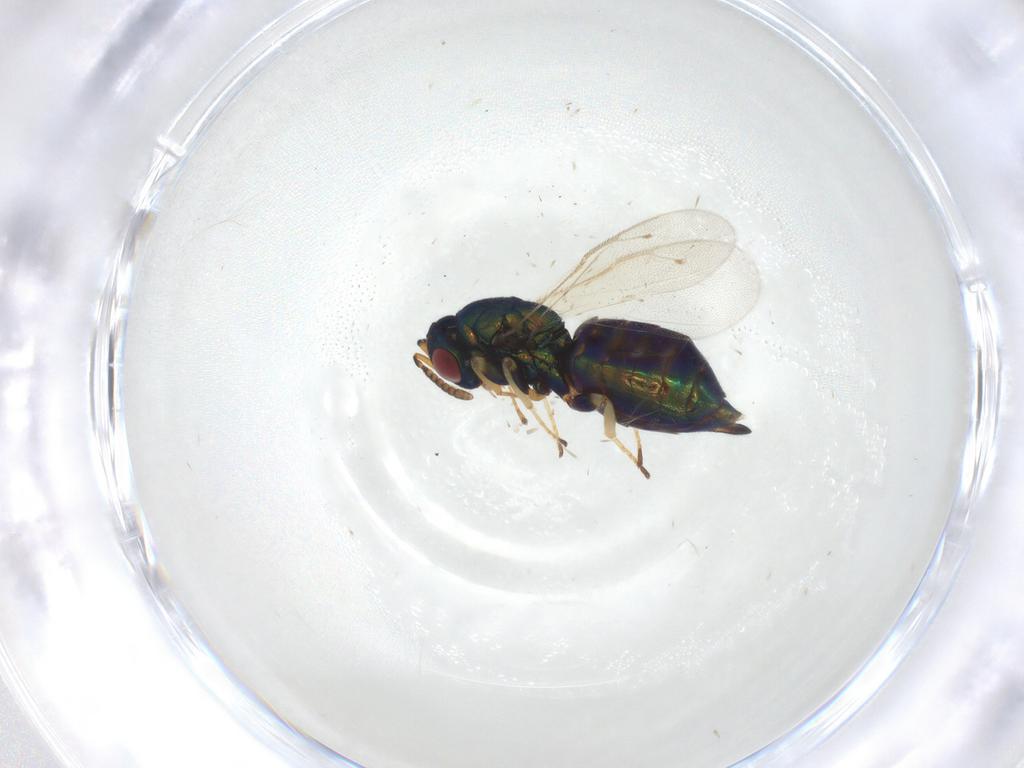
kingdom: Animalia
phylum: Arthropoda
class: Insecta
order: Hymenoptera
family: Pteromalidae
